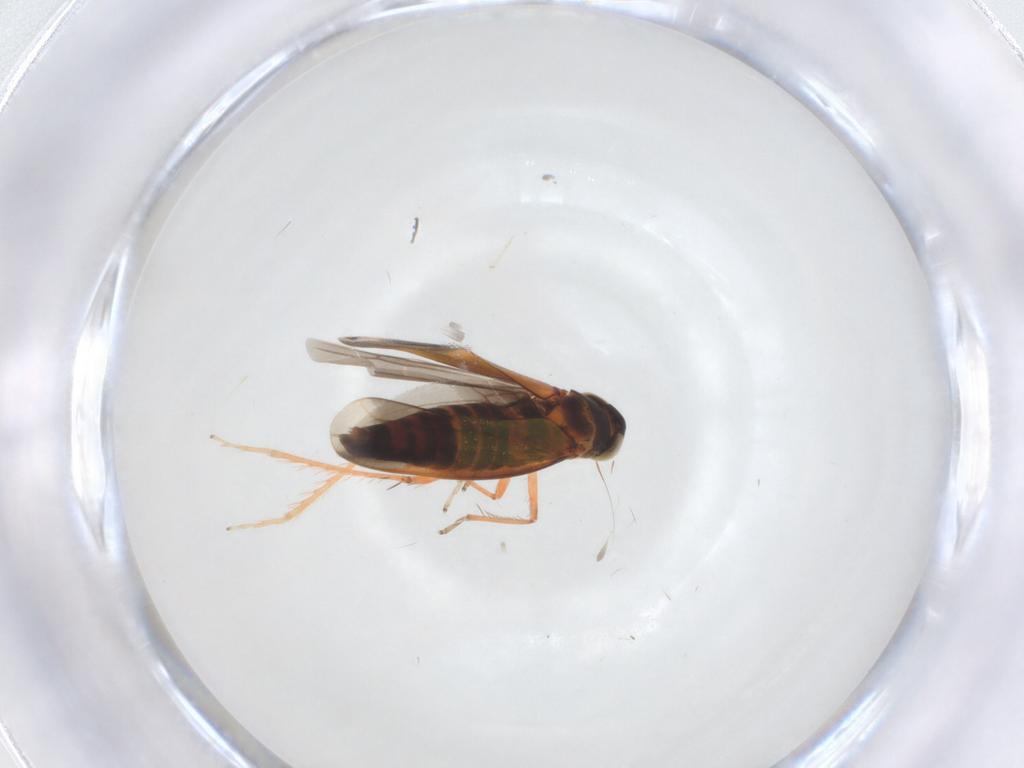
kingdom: Animalia
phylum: Arthropoda
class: Insecta
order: Hemiptera
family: Cicadellidae
